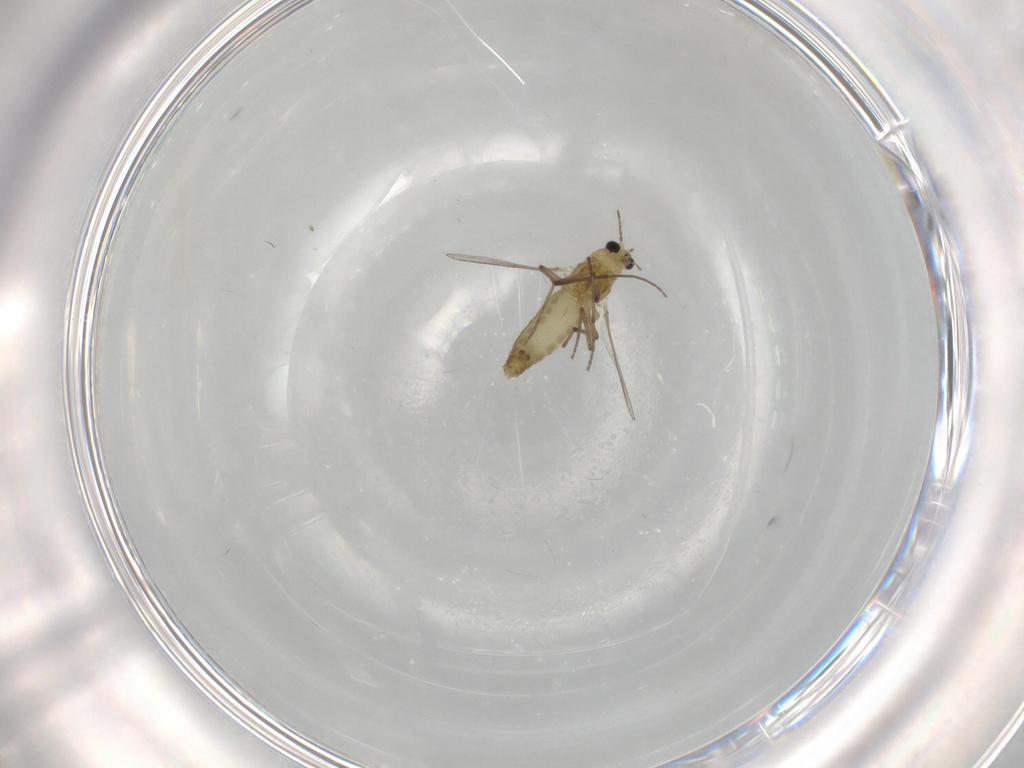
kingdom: Animalia
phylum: Arthropoda
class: Insecta
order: Diptera
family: Chironomidae
